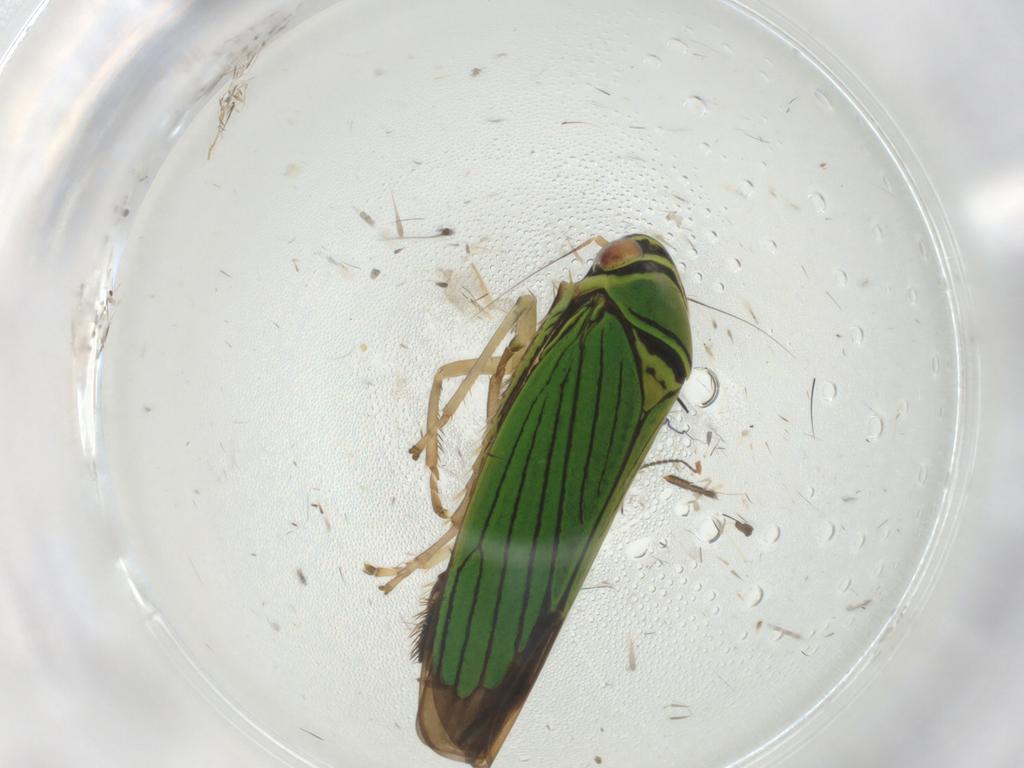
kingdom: Animalia
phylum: Arthropoda
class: Insecta
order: Hemiptera
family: Cicadellidae
